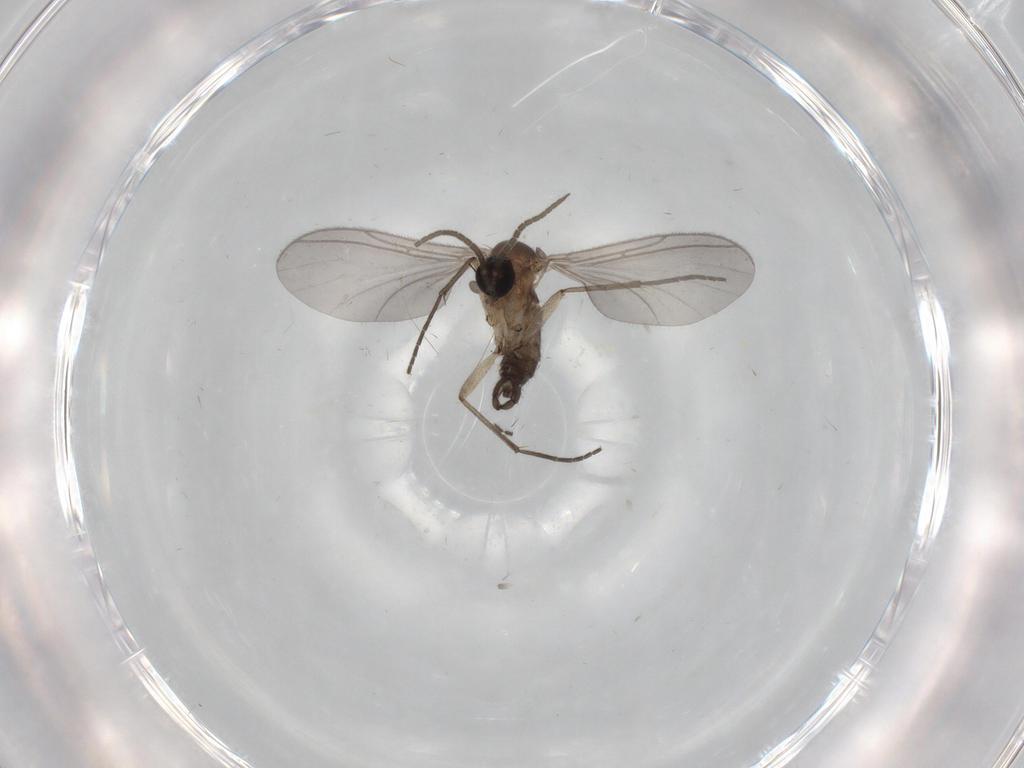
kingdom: Animalia
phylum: Arthropoda
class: Insecta
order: Diptera
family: Sciaridae
